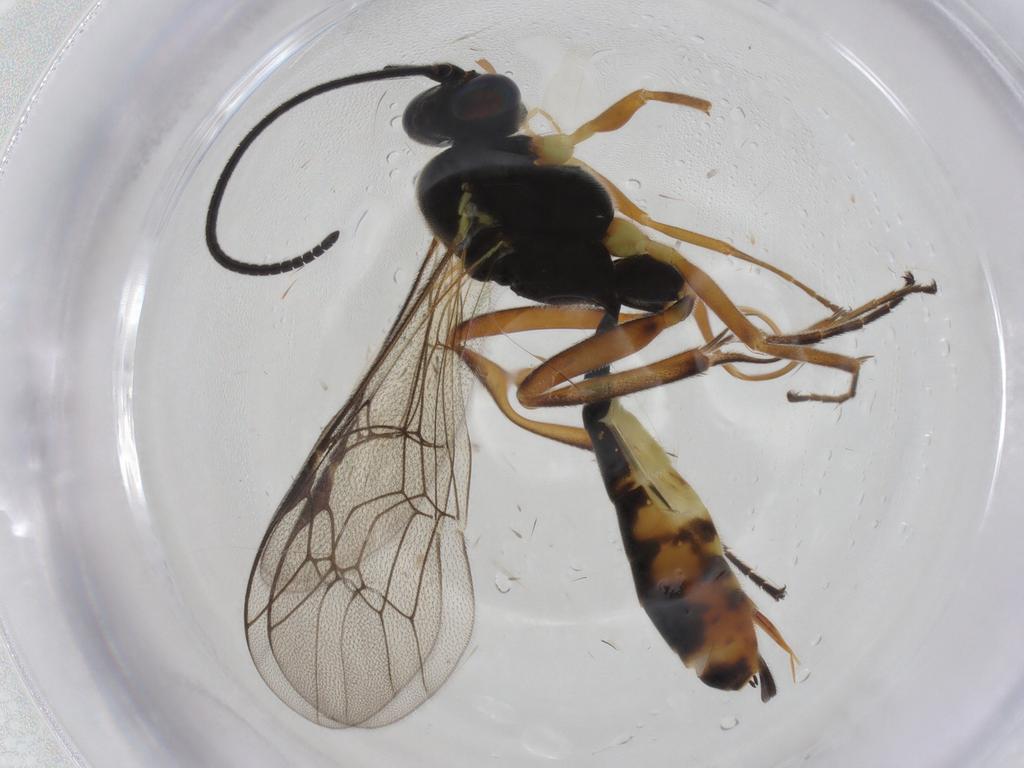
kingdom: Animalia
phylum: Arthropoda
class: Insecta
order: Hymenoptera
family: Ichneumonidae
